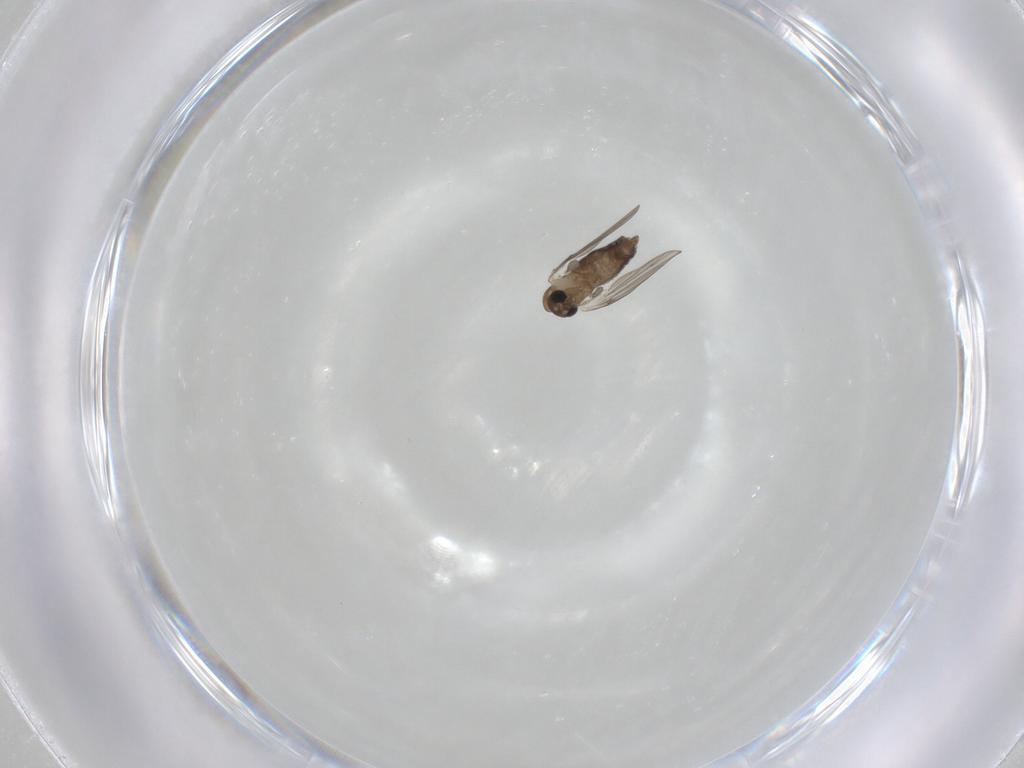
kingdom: Animalia
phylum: Arthropoda
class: Insecta
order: Diptera
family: Psychodidae
